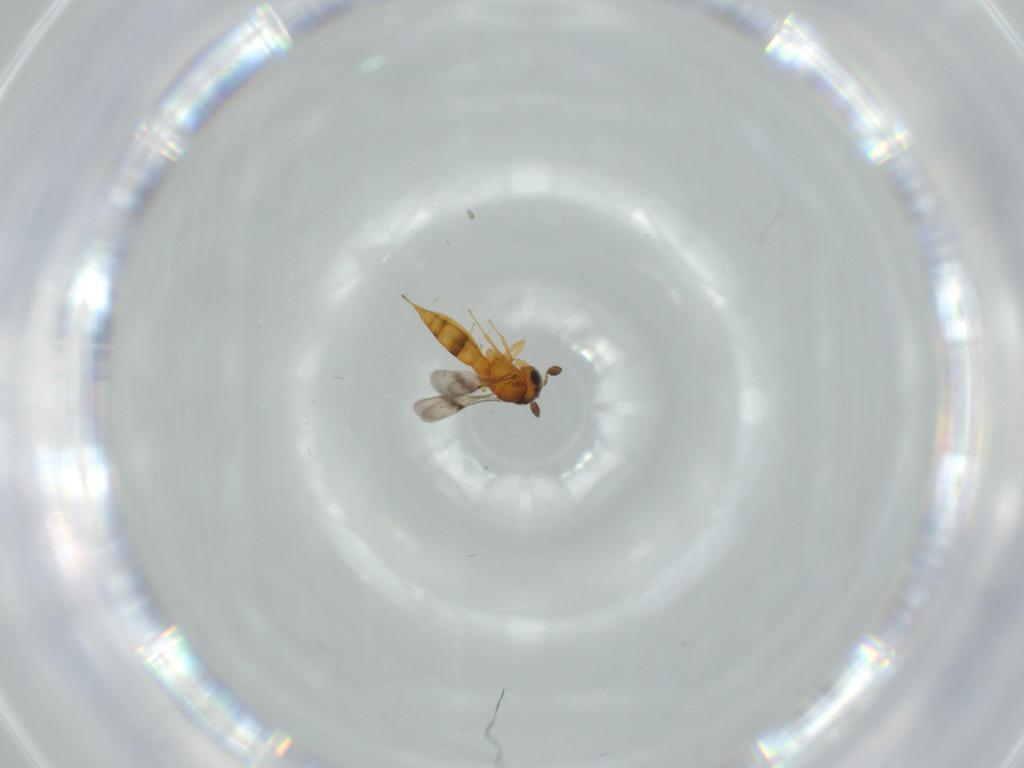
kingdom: Animalia
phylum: Arthropoda
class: Insecta
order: Hymenoptera
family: Scelionidae
